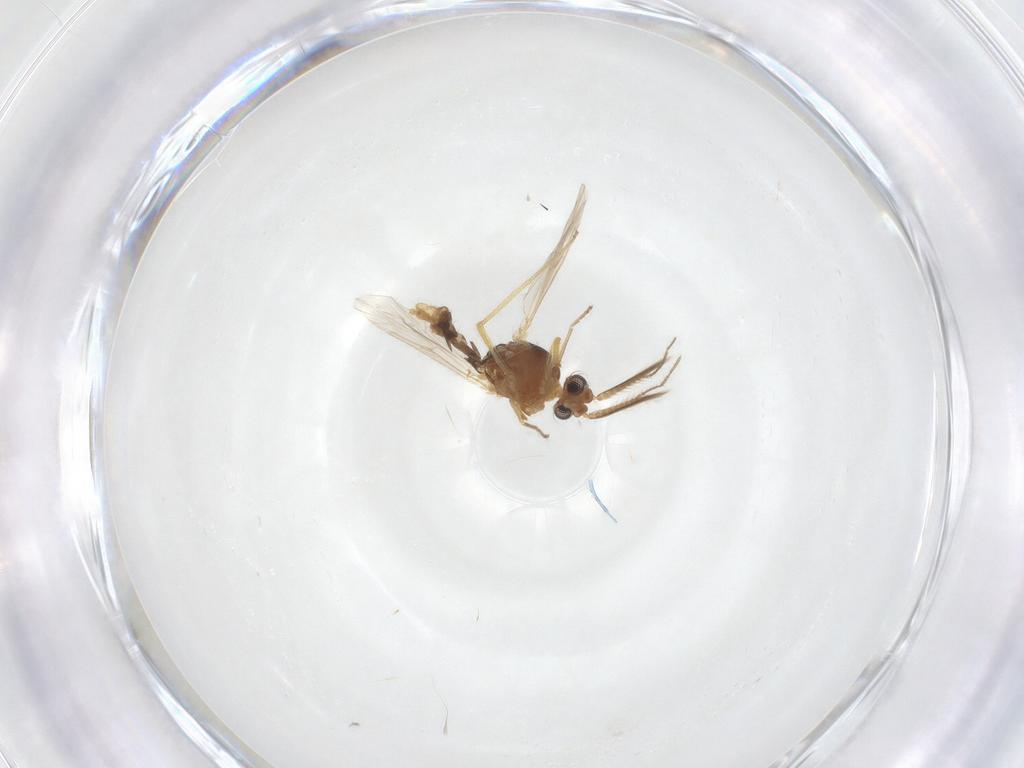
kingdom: Animalia
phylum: Arthropoda
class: Insecta
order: Diptera
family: Ceratopogonidae
